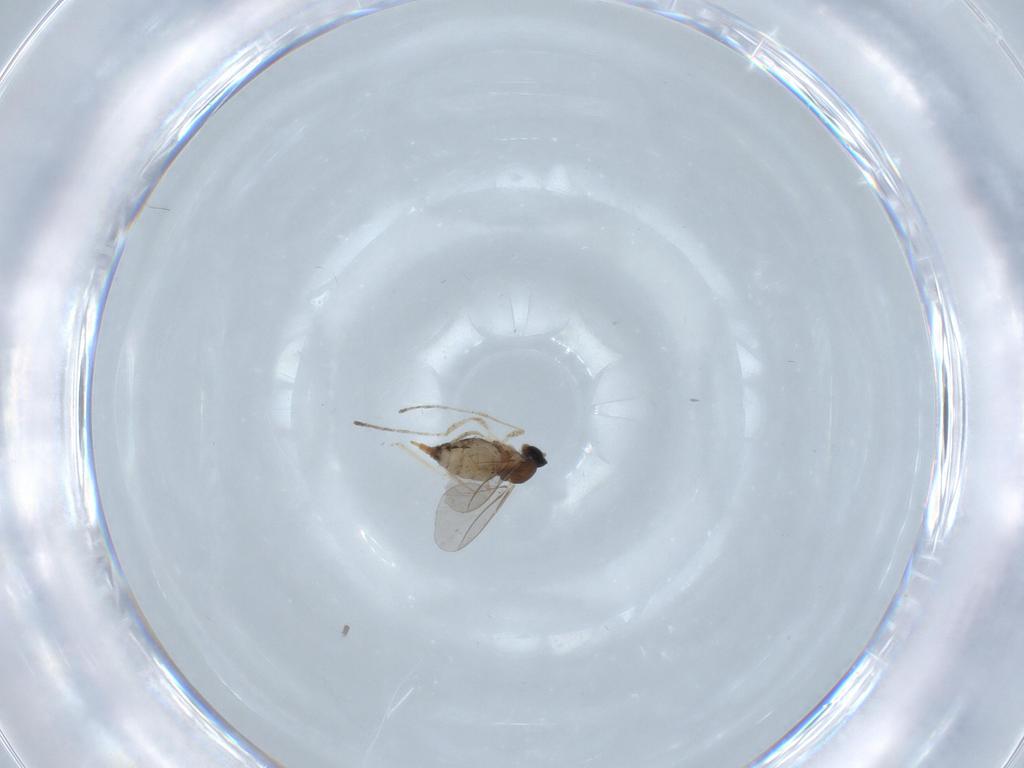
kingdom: Animalia
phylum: Arthropoda
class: Insecta
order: Diptera
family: Cecidomyiidae
